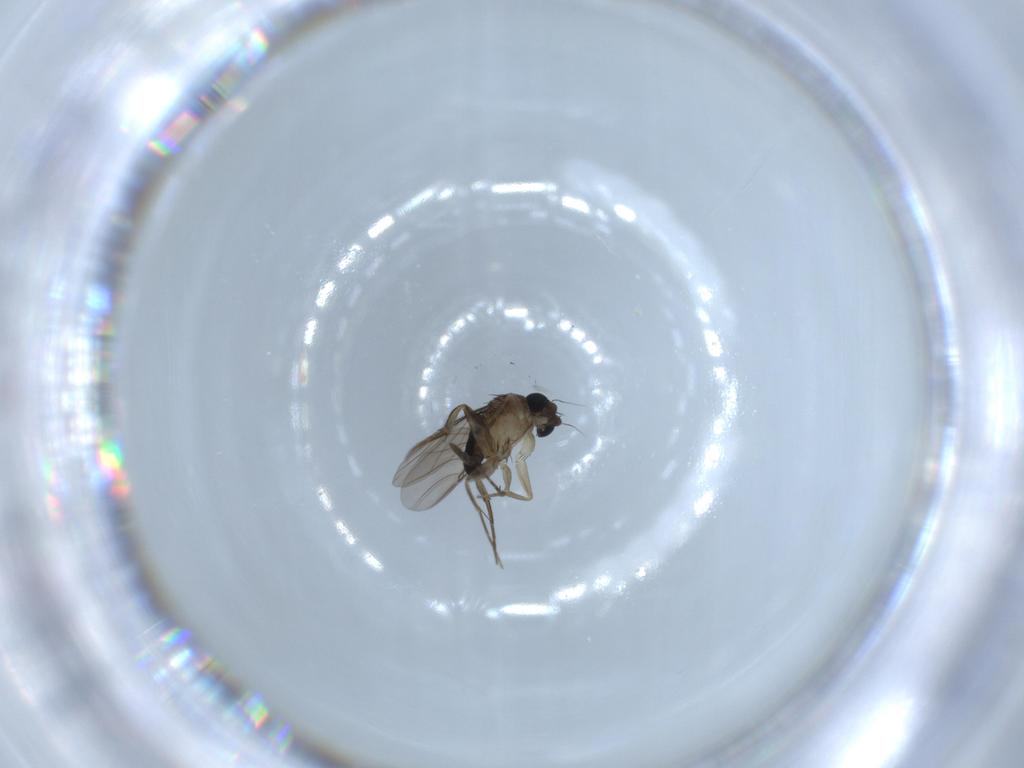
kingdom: Animalia
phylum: Arthropoda
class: Insecta
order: Diptera
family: Phoridae
